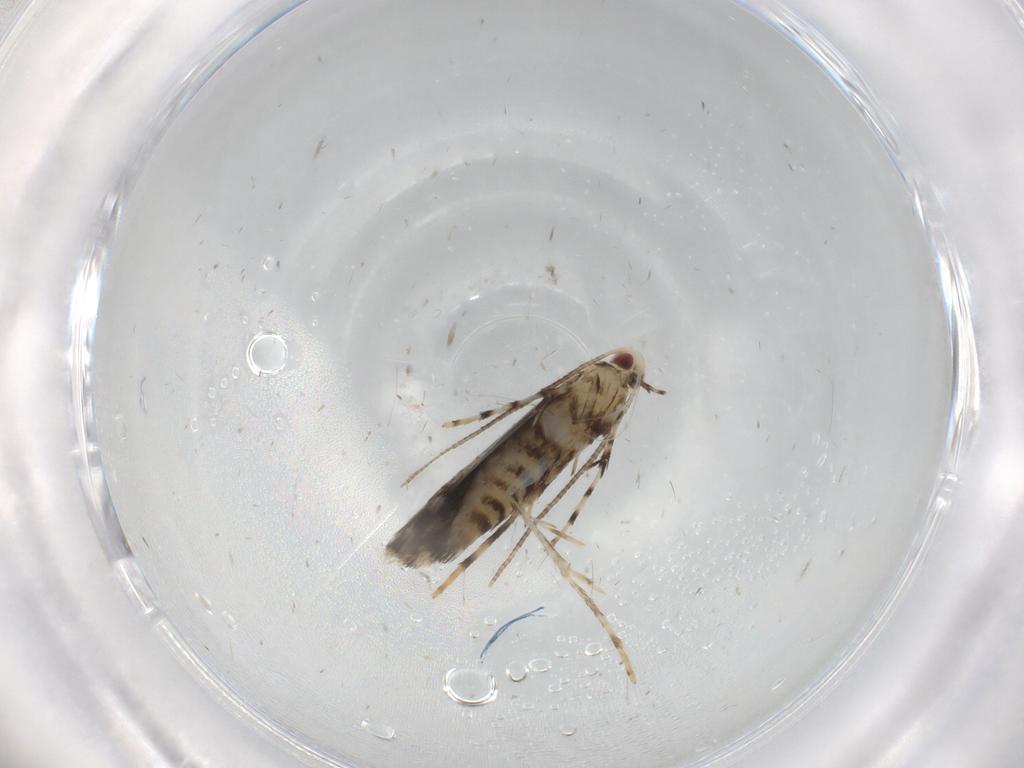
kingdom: Animalia
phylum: Arthropoda
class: Insecta
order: Lepidoptera
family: Gracillariidae
